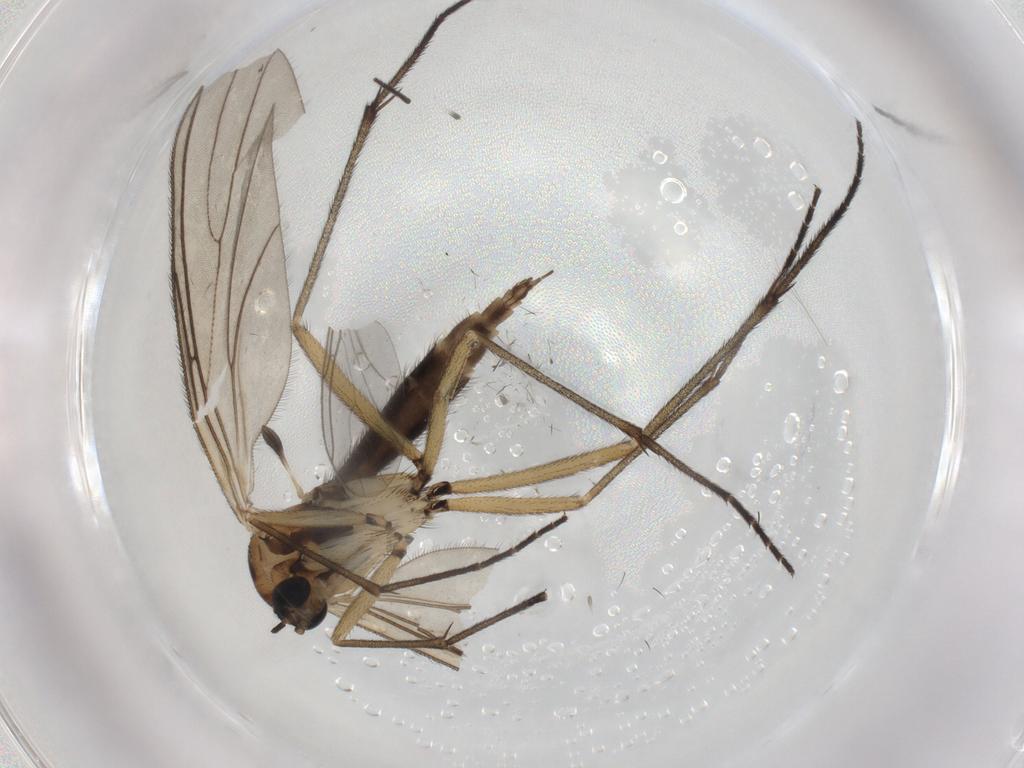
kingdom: Animalia
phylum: Arthropoda
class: Insecta
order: Diptera
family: Sciaridae
